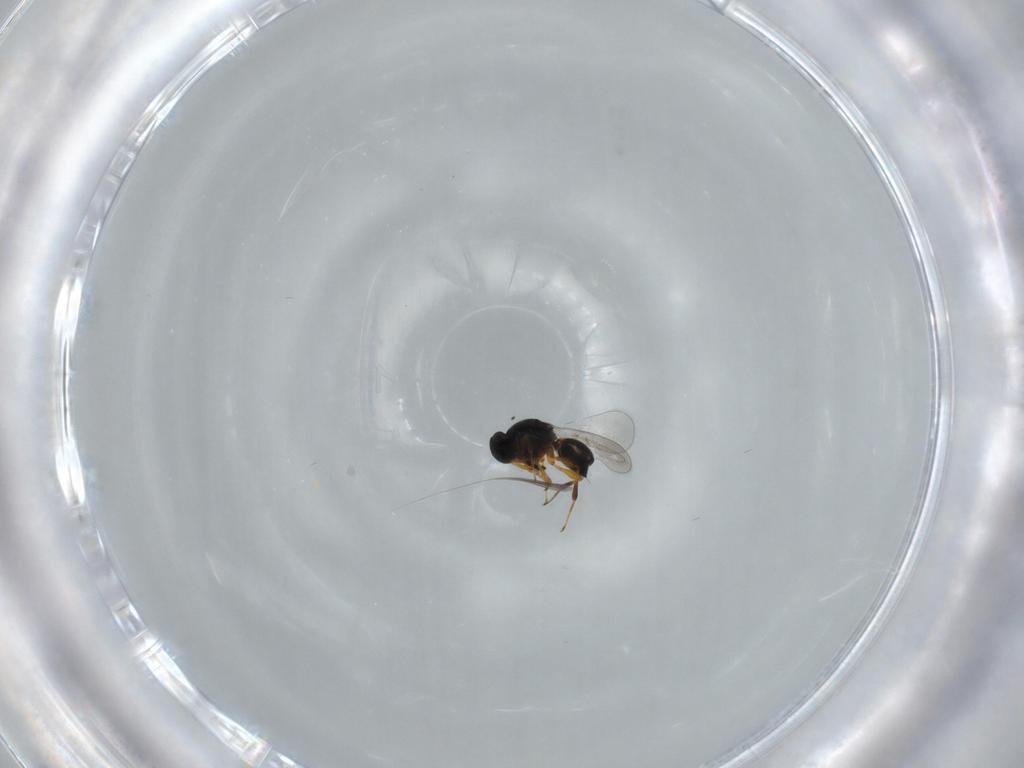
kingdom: Animalia
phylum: Arthropoda
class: Insecta
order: Hymenoptera
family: Platygastridae
